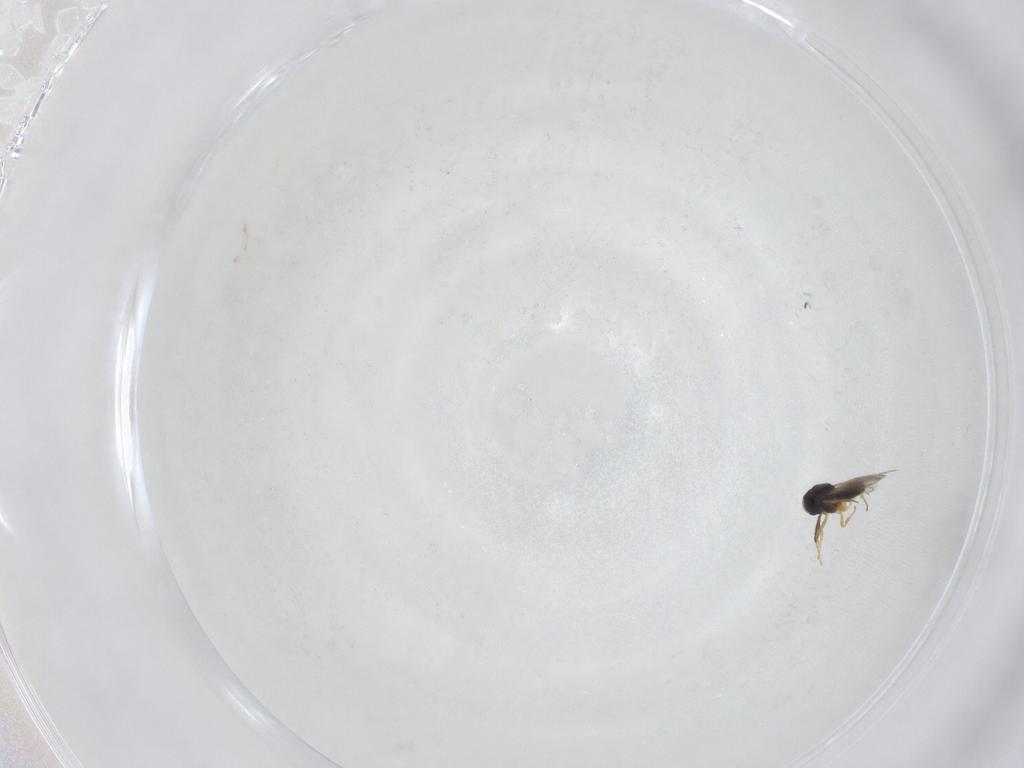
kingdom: Animalia
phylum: Arthropoda
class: Insecta
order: Hymenoptera
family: Scelionidae
